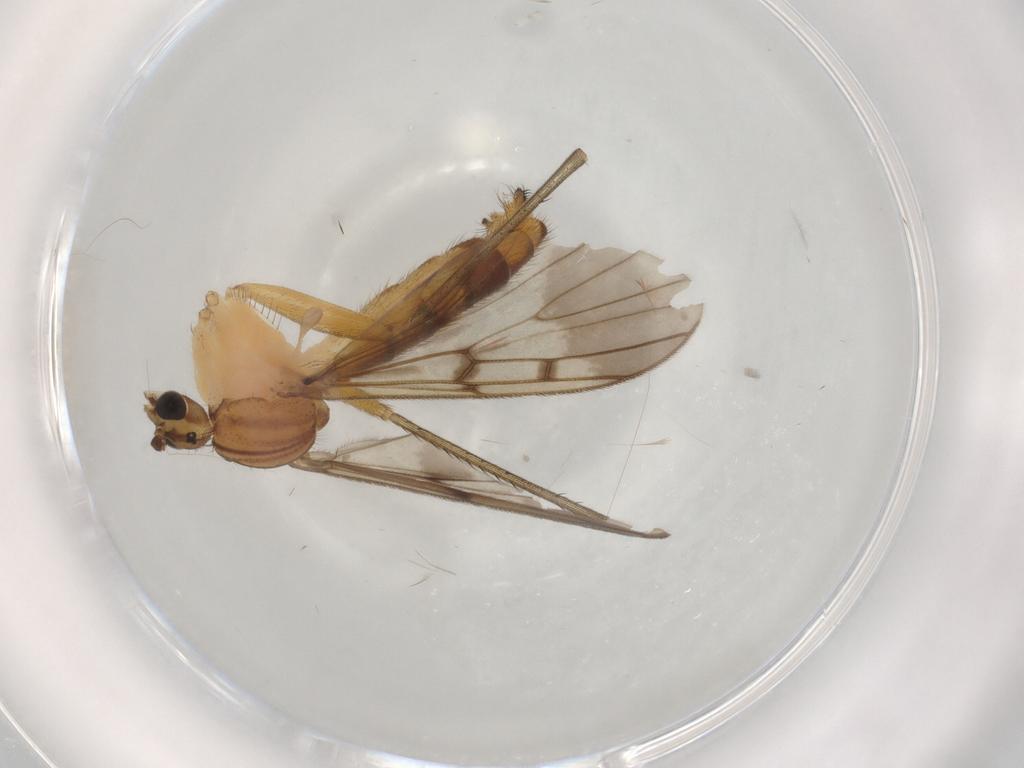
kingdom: Animalia
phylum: Arthropoda
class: Insecta
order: Diptera
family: Mycetophilidae
